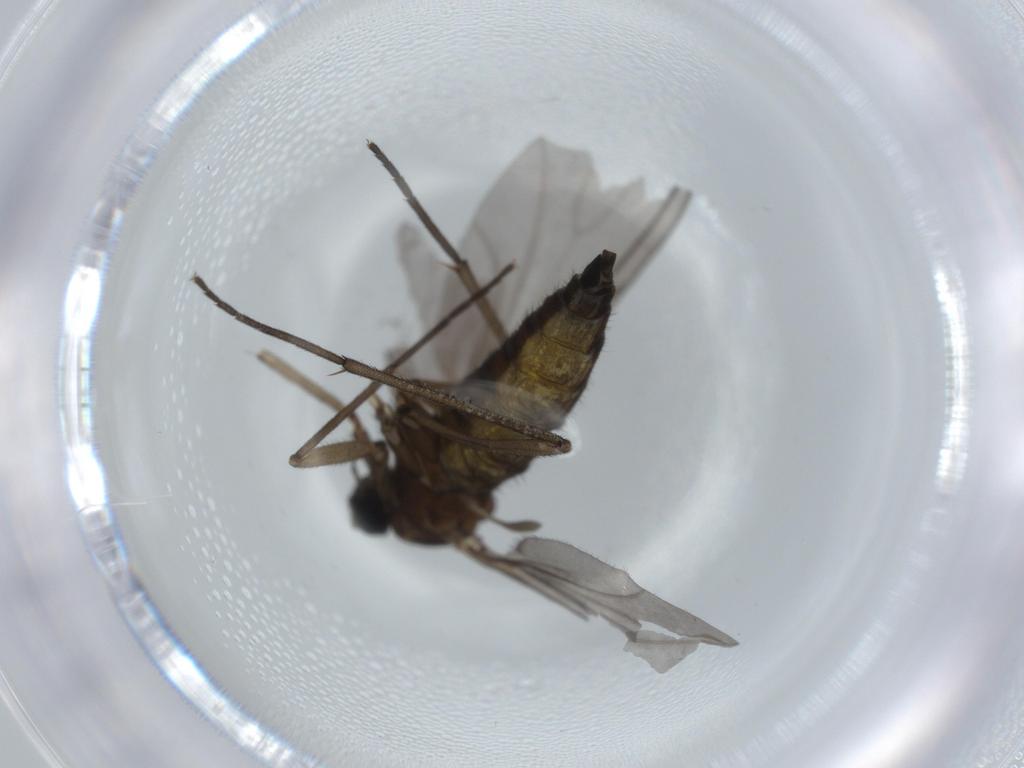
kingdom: Animalia
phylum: Arthropoda
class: Insecta
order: Diptera
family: Sciaridae
